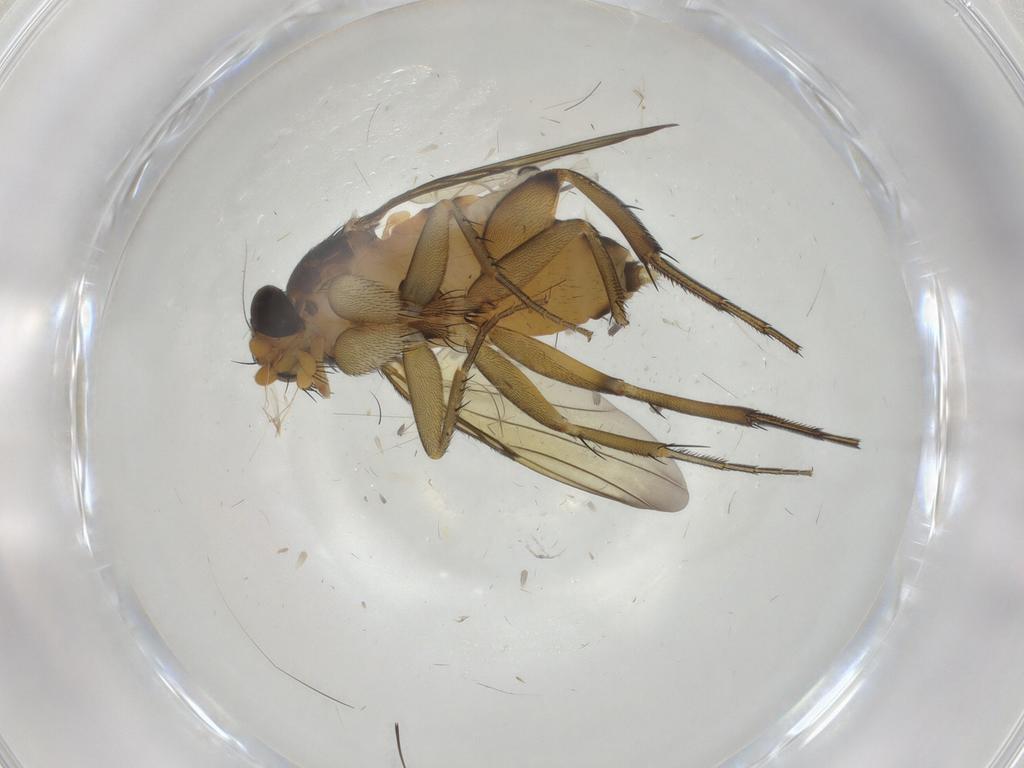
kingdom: Animalia
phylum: Arthropoda
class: Insecta
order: Diptera
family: Phoridae
